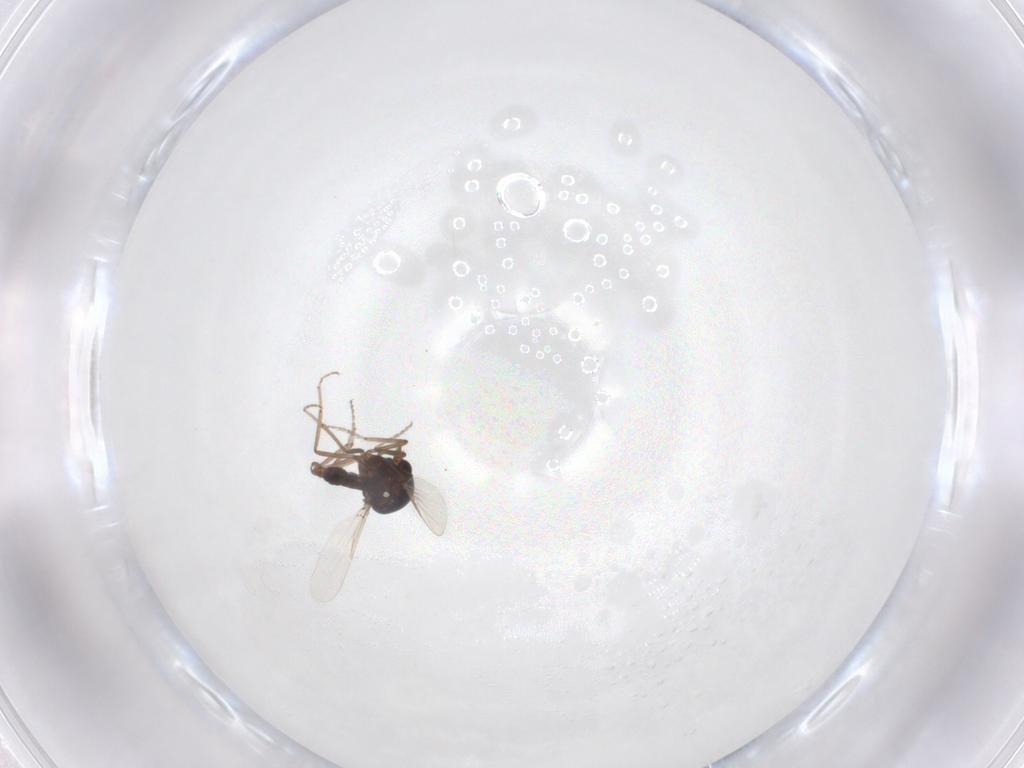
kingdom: Animalia
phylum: Arthropoda
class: Insecta
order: Diptera
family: Ceratopogonidae
